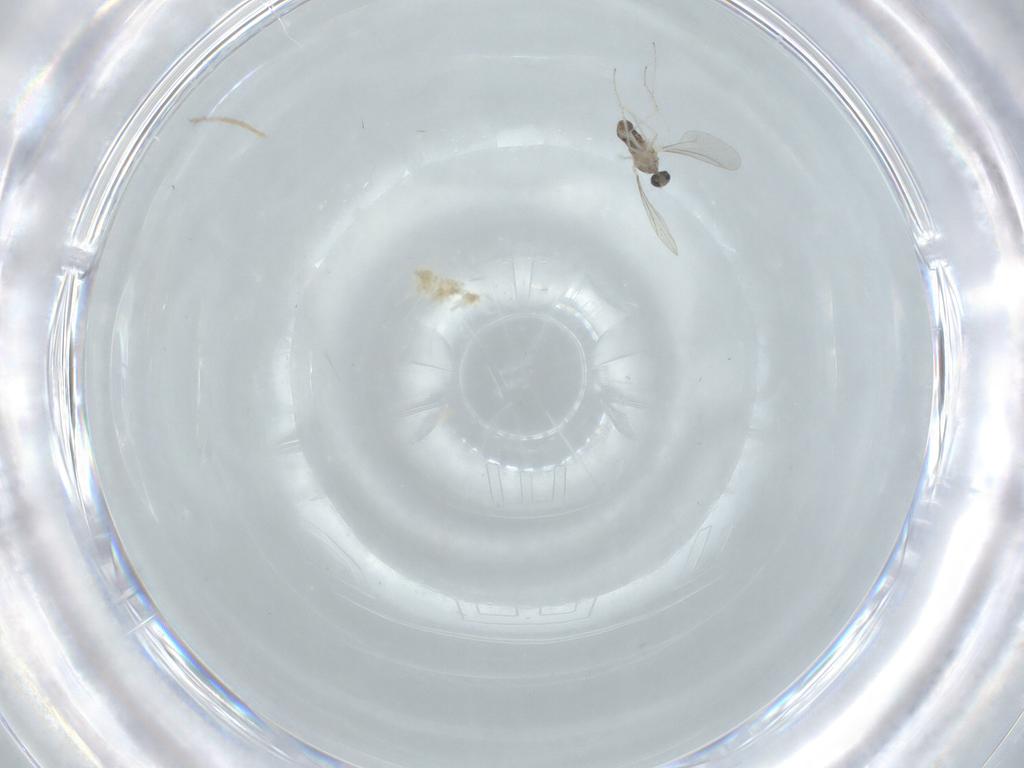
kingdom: Animalia
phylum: Arthropoda
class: Insecta
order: Diptera
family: Cecidomyiidae
